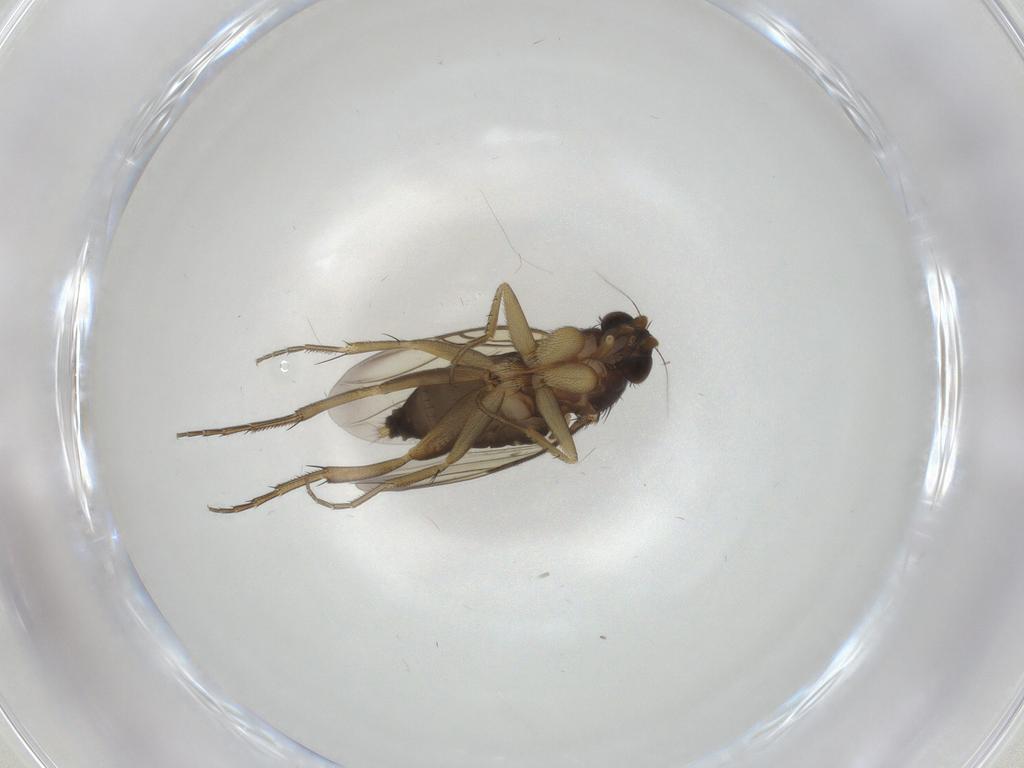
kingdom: Animalia
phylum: Arthropoda
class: Insecta
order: Diptera
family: Phoridae
